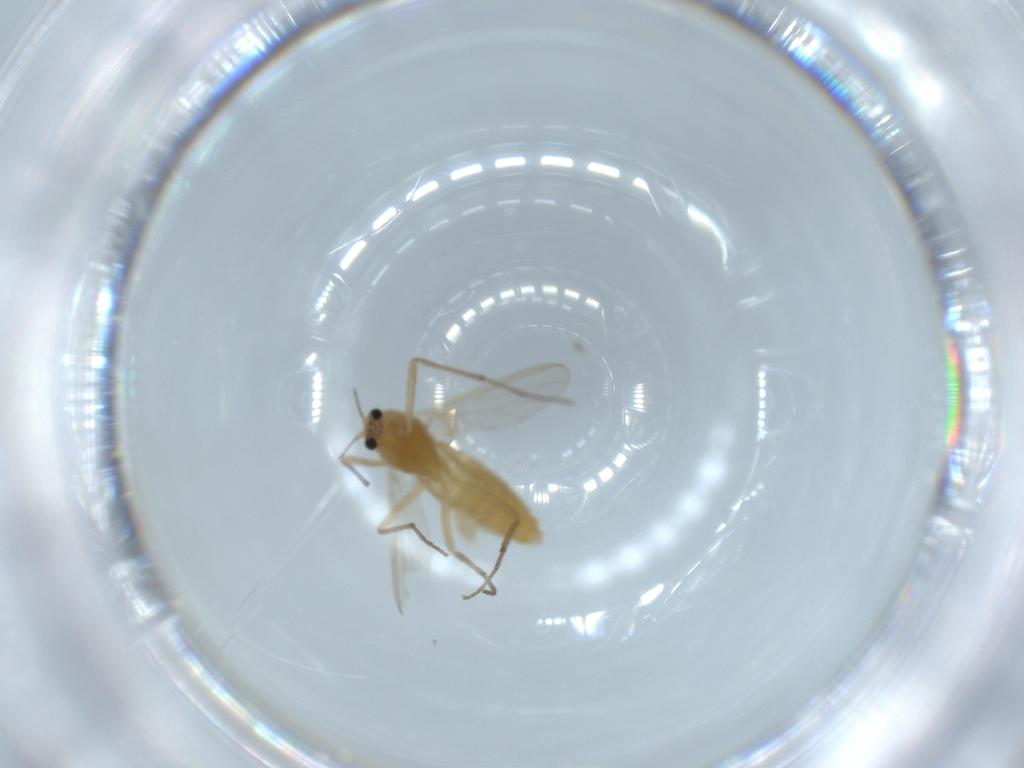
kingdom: Animalia
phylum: Arthropoda
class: Insecta
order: Diptera
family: Chironomidae
